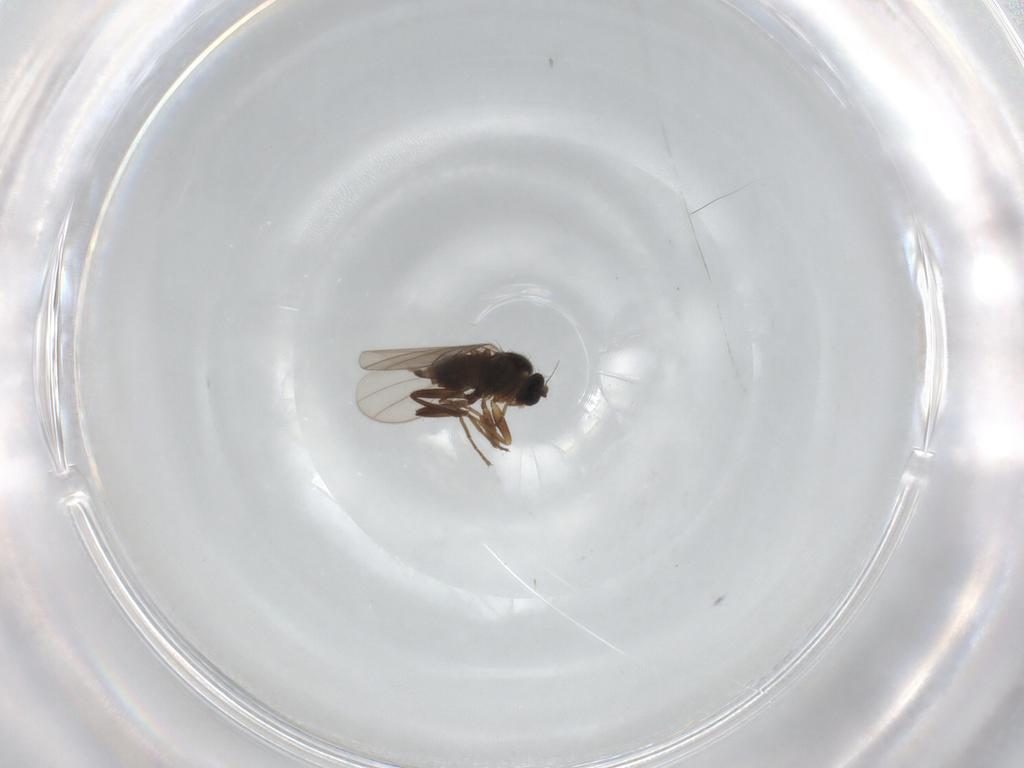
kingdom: Animalia
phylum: Arthropoda
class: Insecta
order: Diptera
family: Hybotidae
